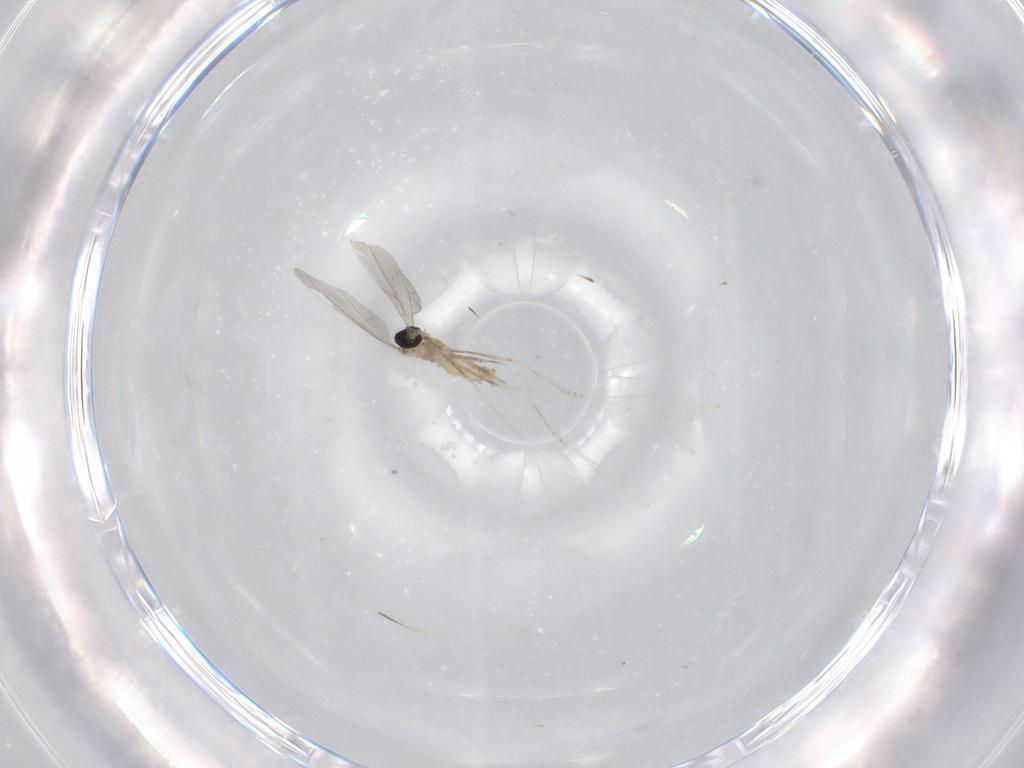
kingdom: Animalia
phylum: Arthropoda
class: Insecta
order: Diptera
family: Cecidomyiidae
